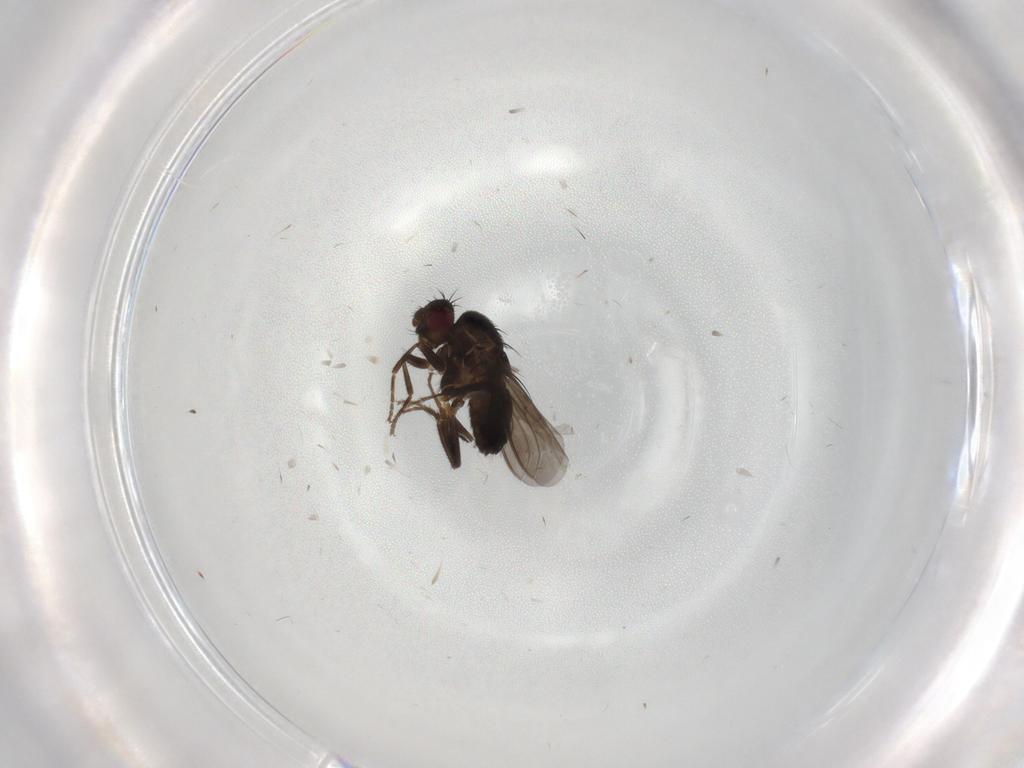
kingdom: Animalia
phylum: Arthropoda
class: Insecta
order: Diptera
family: Sphaeroceridae
